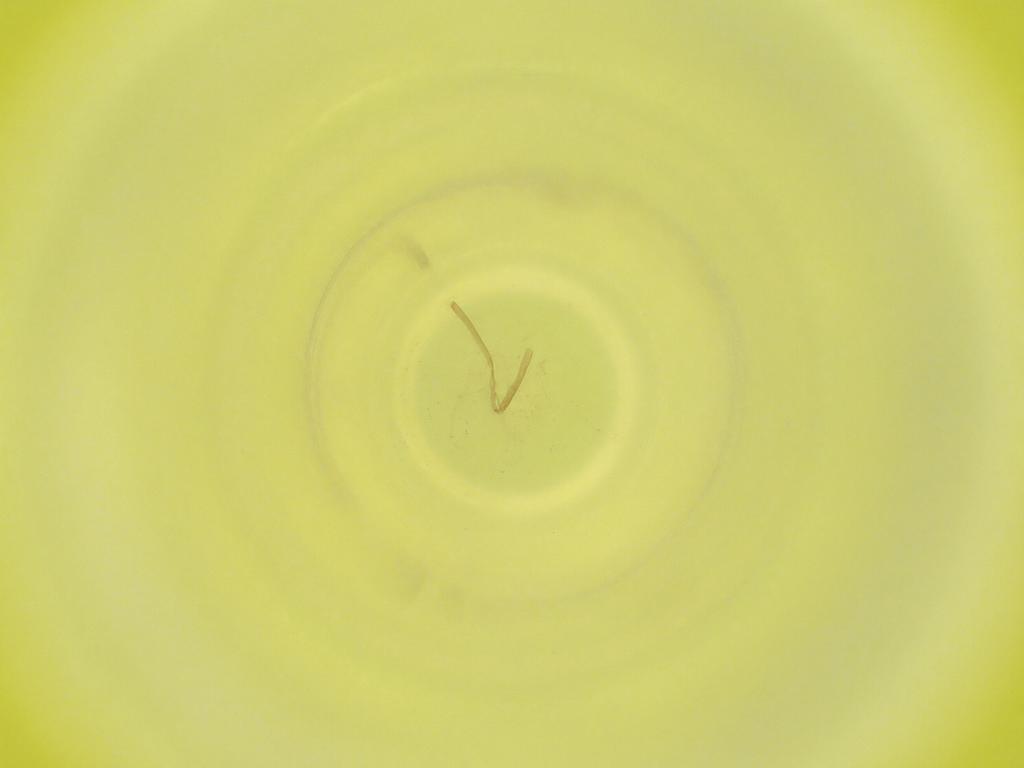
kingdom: Animalia
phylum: Arthropoda
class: Insecta
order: Diptera
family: Cecidomyiidae
